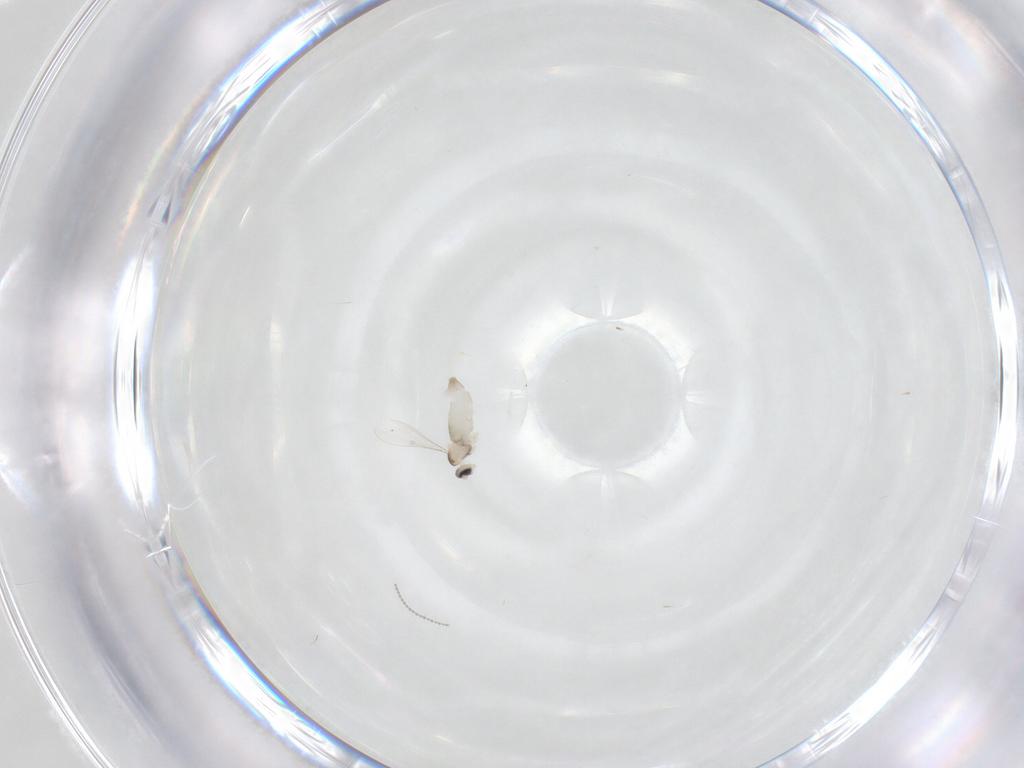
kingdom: Animalia
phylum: Arthropoda
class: Insecta
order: Diptera
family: Cecidomyiidae
